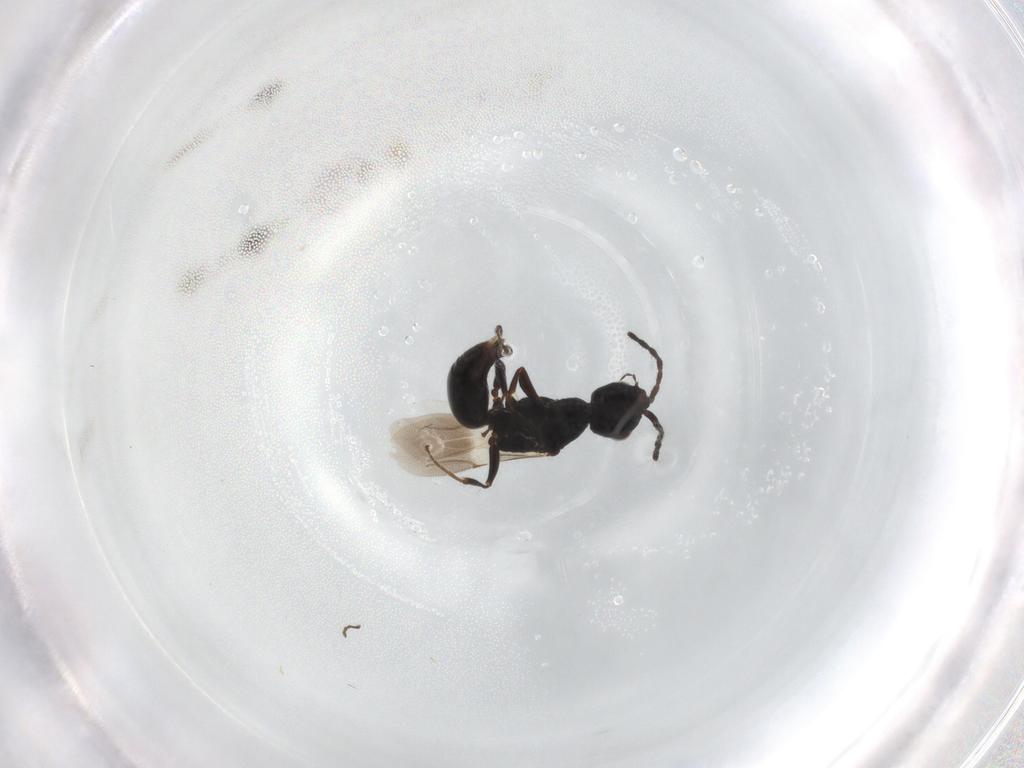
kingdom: Animalia
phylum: Arthropoda
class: Insecta
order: Hymenoptera
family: Bethylidae
